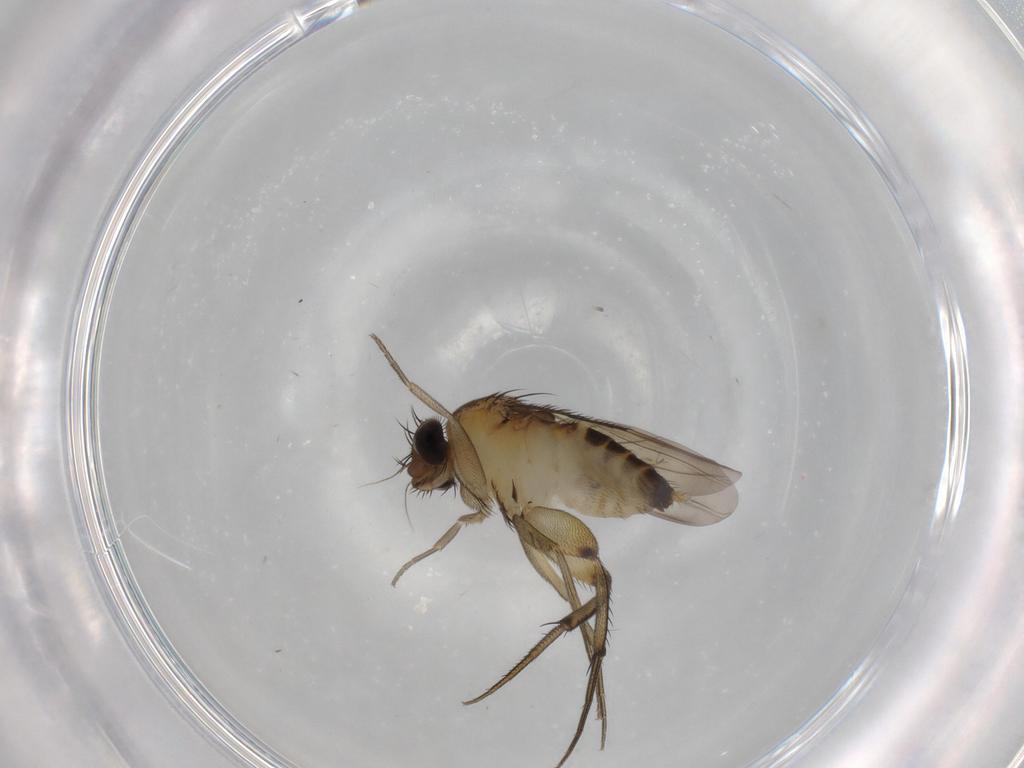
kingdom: Animalia
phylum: Arthropoda
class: Insecta
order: Diptera
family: Phoridae
